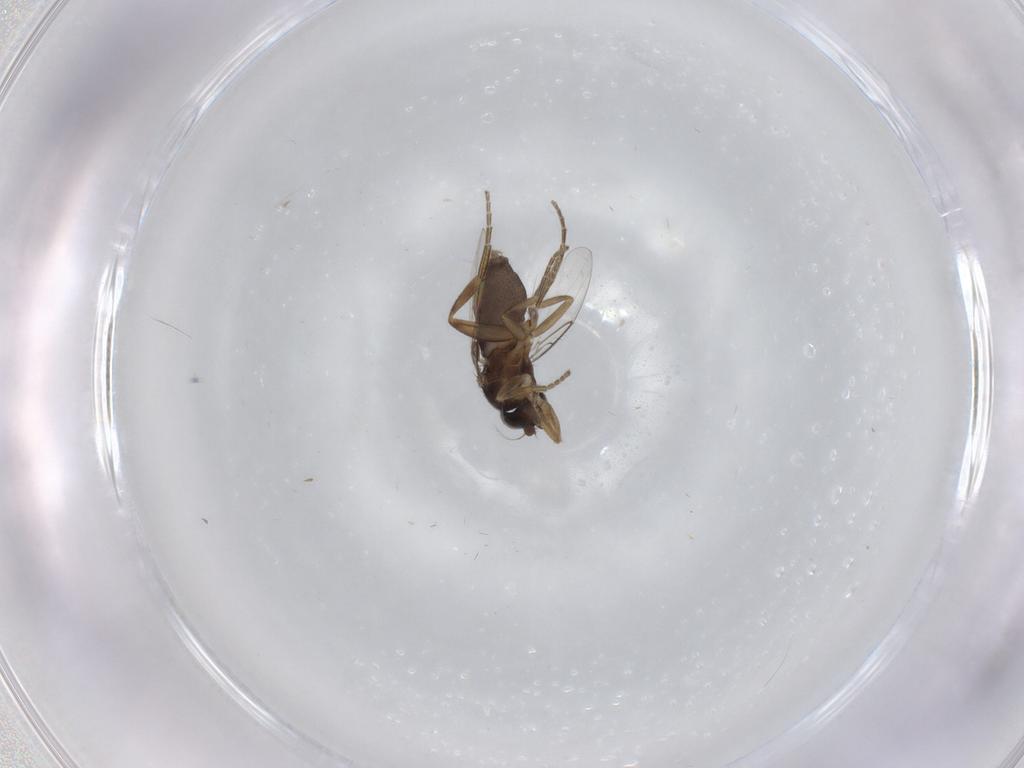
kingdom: Animalia
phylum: Arthropoda
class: Insecta
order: Diptera
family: Phoridae
